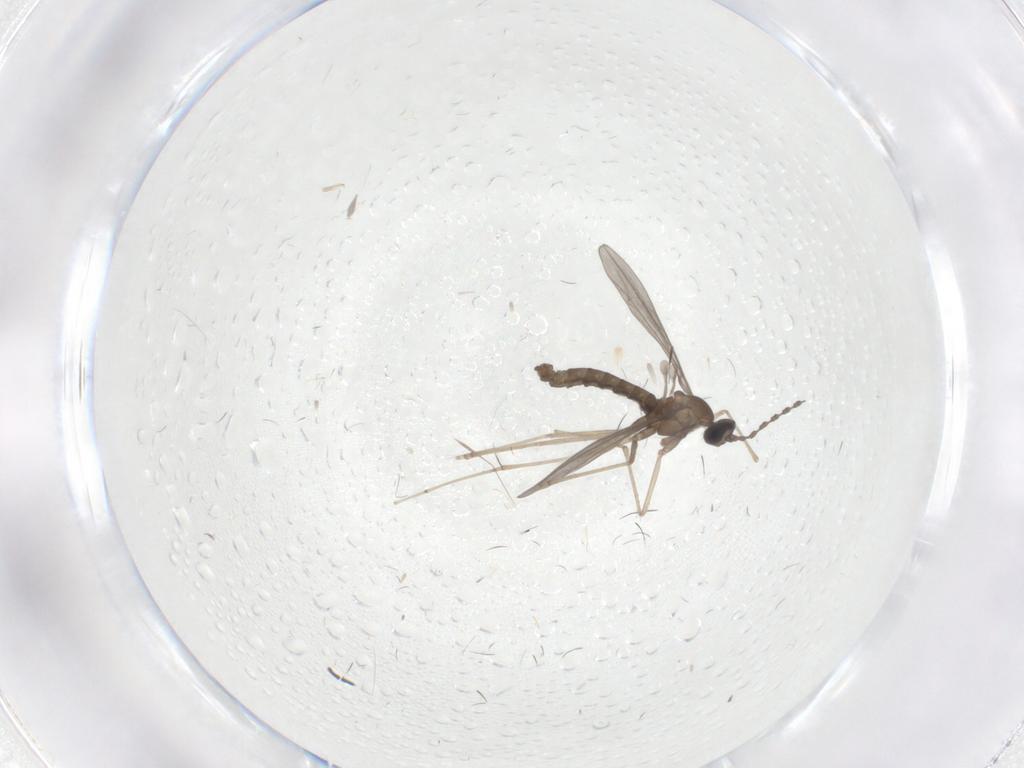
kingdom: Animalia
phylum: Arthropoda
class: Insecta
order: Diptera
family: Cecidomyiidae
